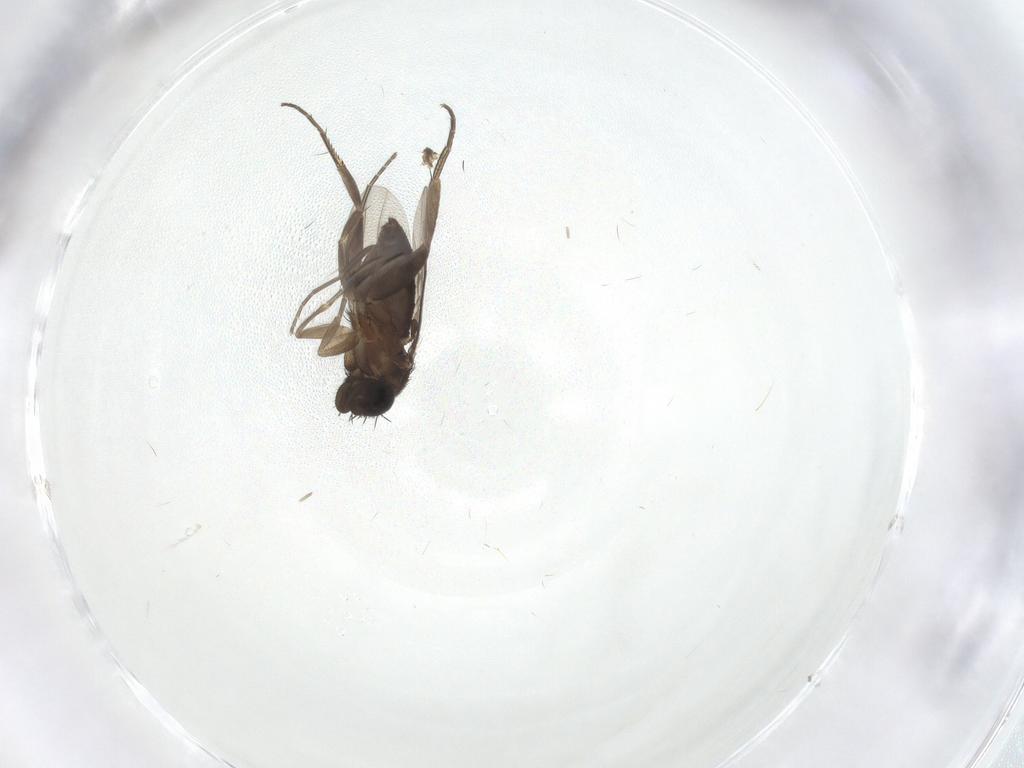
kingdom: Animalia
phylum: Arthropoda
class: Insecta
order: Diptera
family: Phoridae
